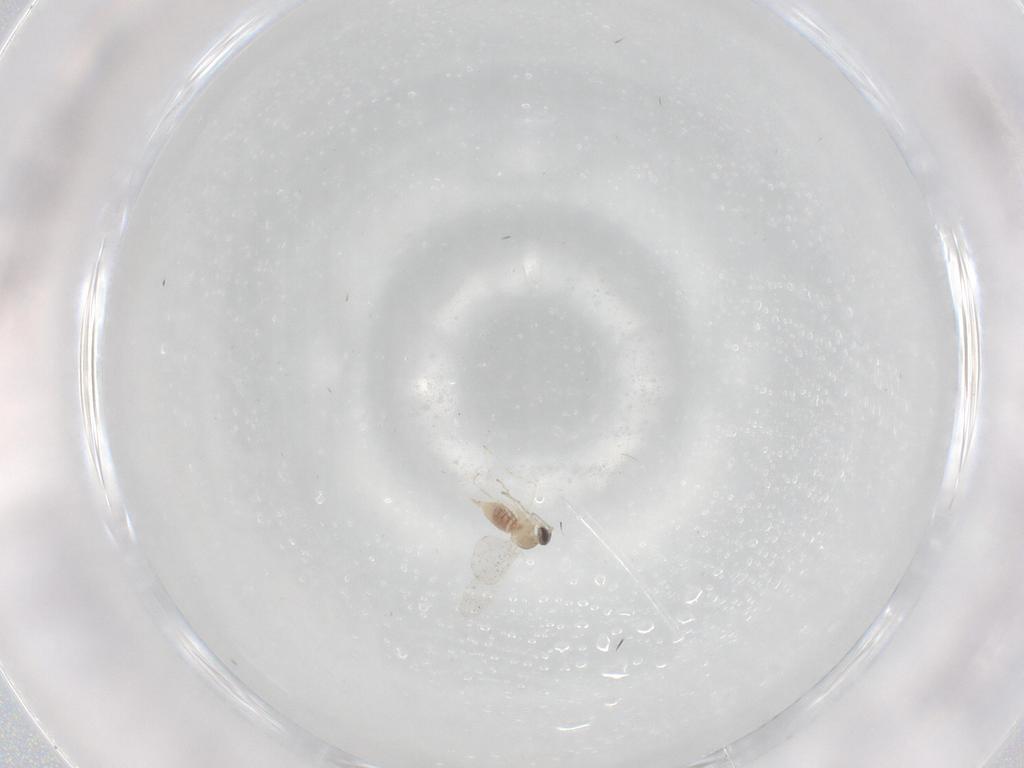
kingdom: Animalia
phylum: Arthropoda
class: Insecta
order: Diptera
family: Cecidomyiidae
